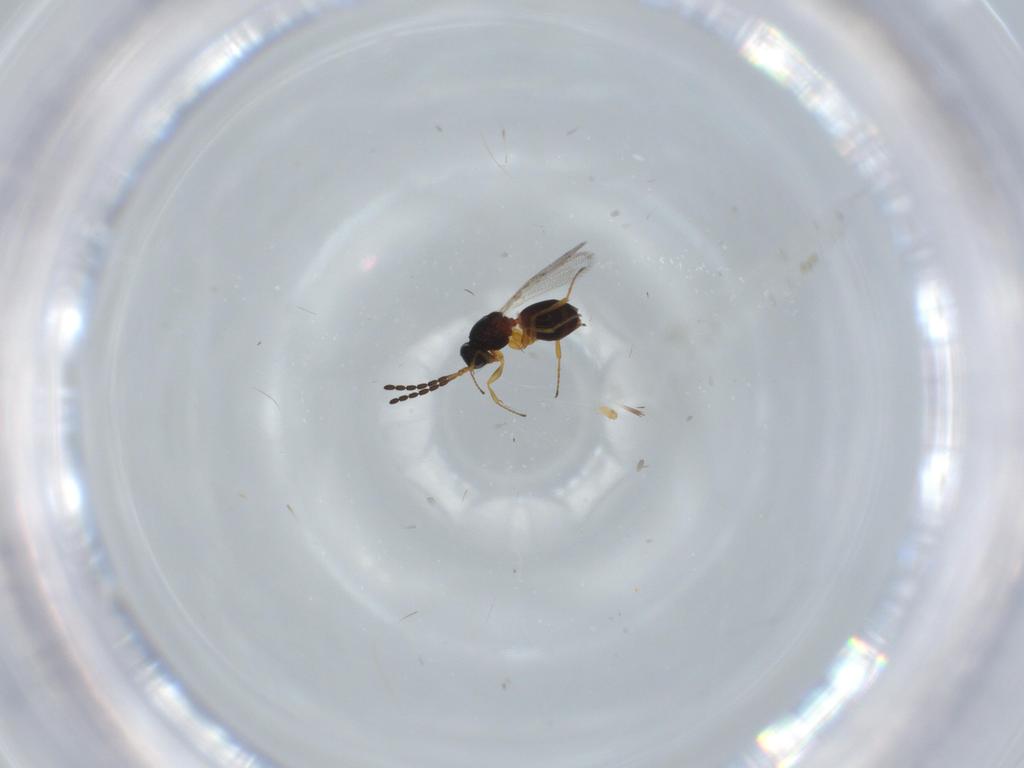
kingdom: Animalia
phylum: Arthropoda
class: Insecta
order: Hymenoptera
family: Figitidae
